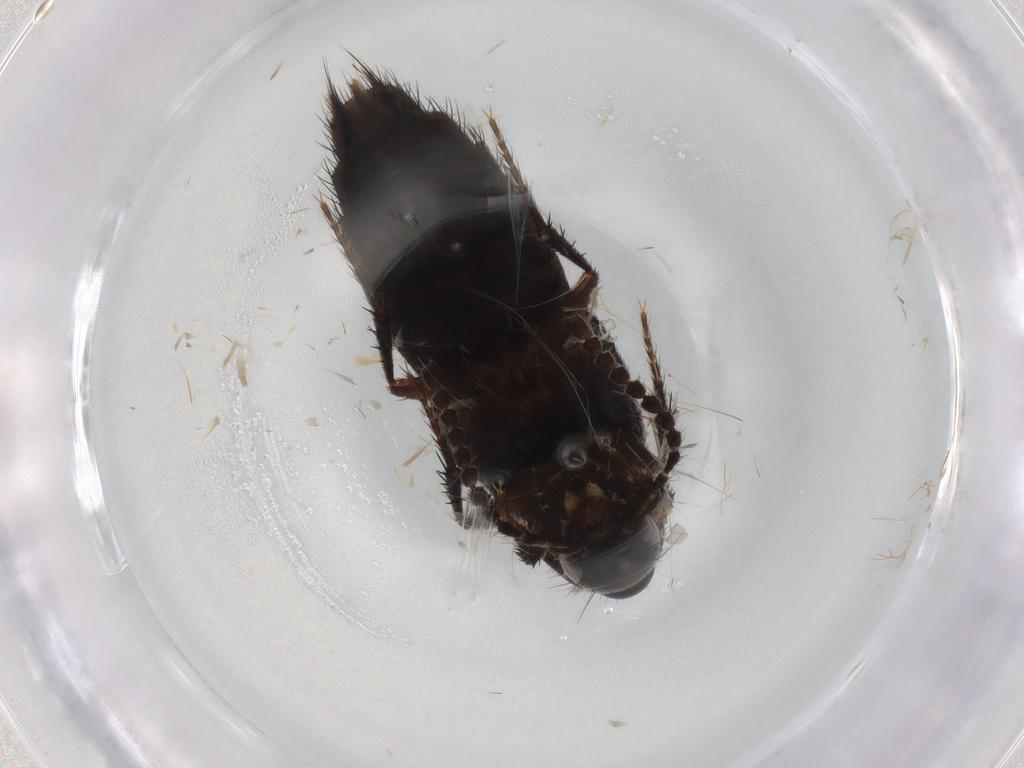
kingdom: Animalia
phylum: Arthropoda
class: Insecta
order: Coleoptera
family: Staphylinidae
